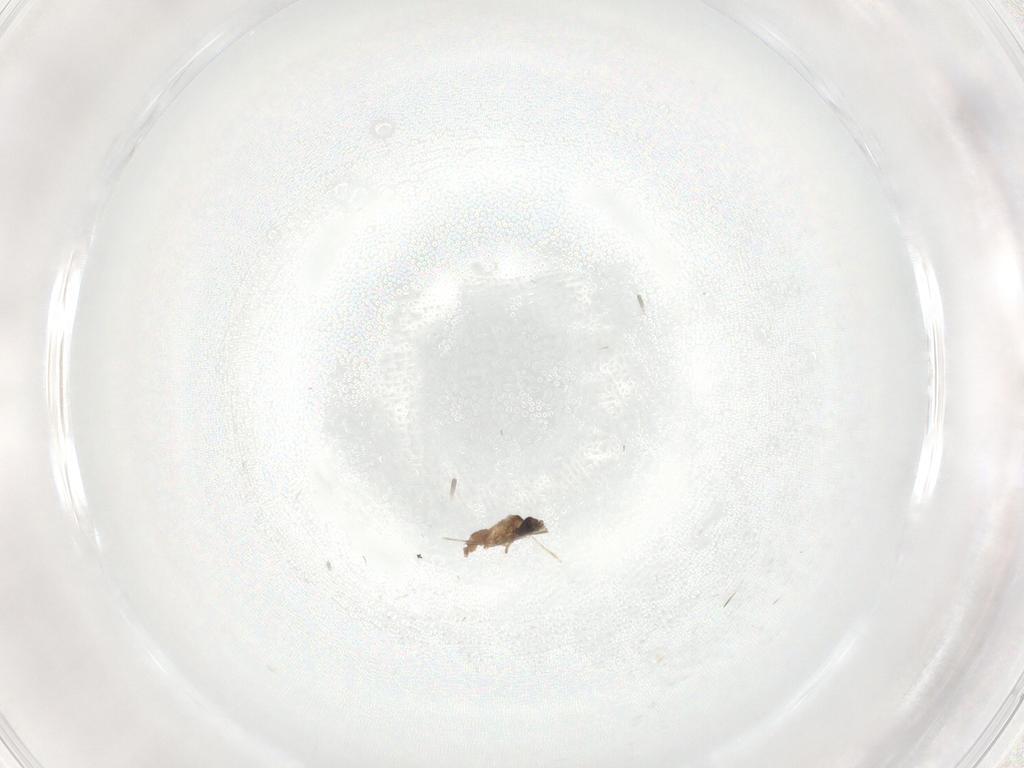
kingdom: Animalia
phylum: Arthropoda
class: Insecta
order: Diptera
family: Cecidomyiidae
